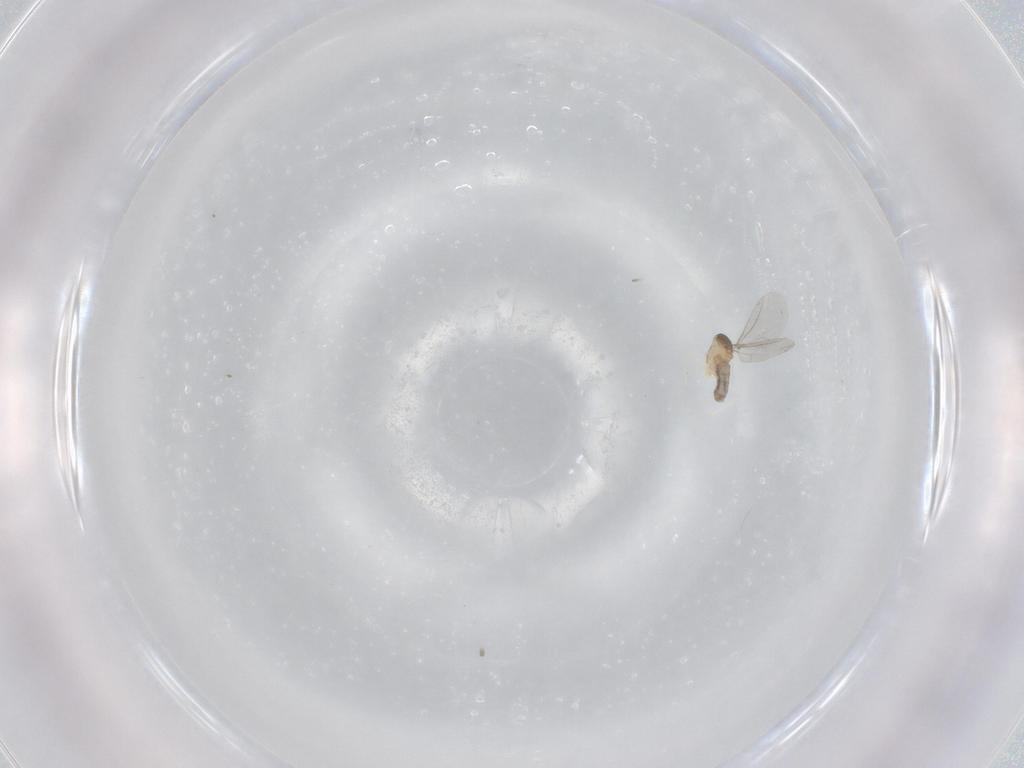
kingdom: Animalia
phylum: Arthropoda
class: Insecta
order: Diptera
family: Cecidomyiidae
